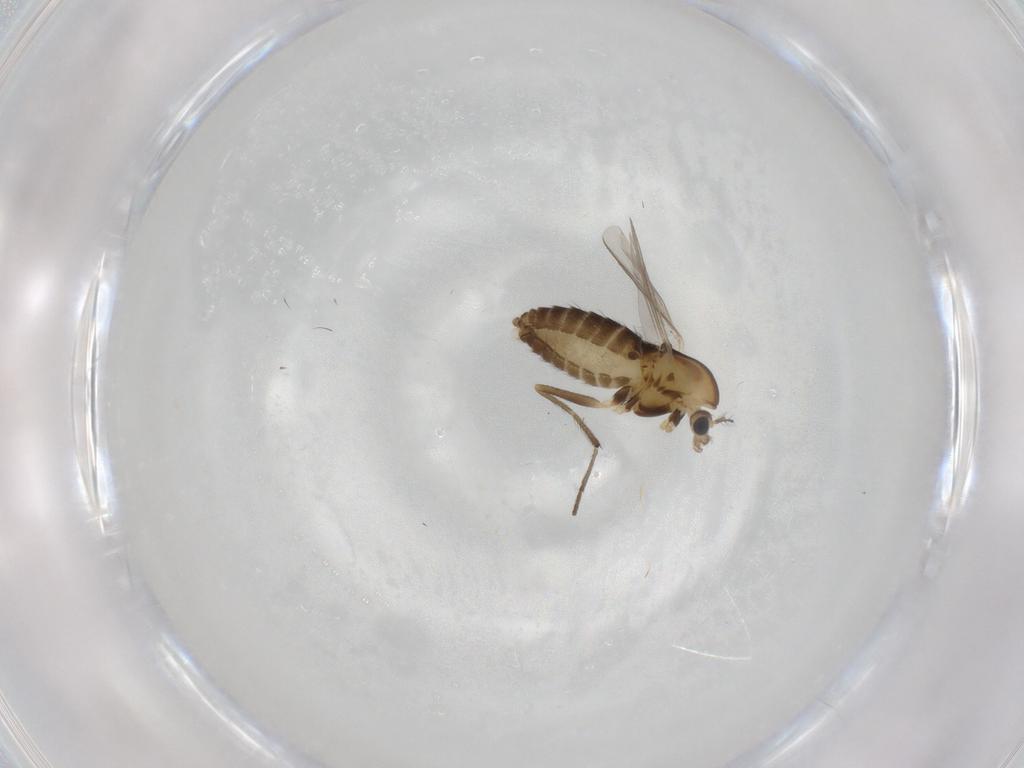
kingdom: Animalia
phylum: Arthropoda
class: Insecta
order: Diptera
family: Chironomidae
